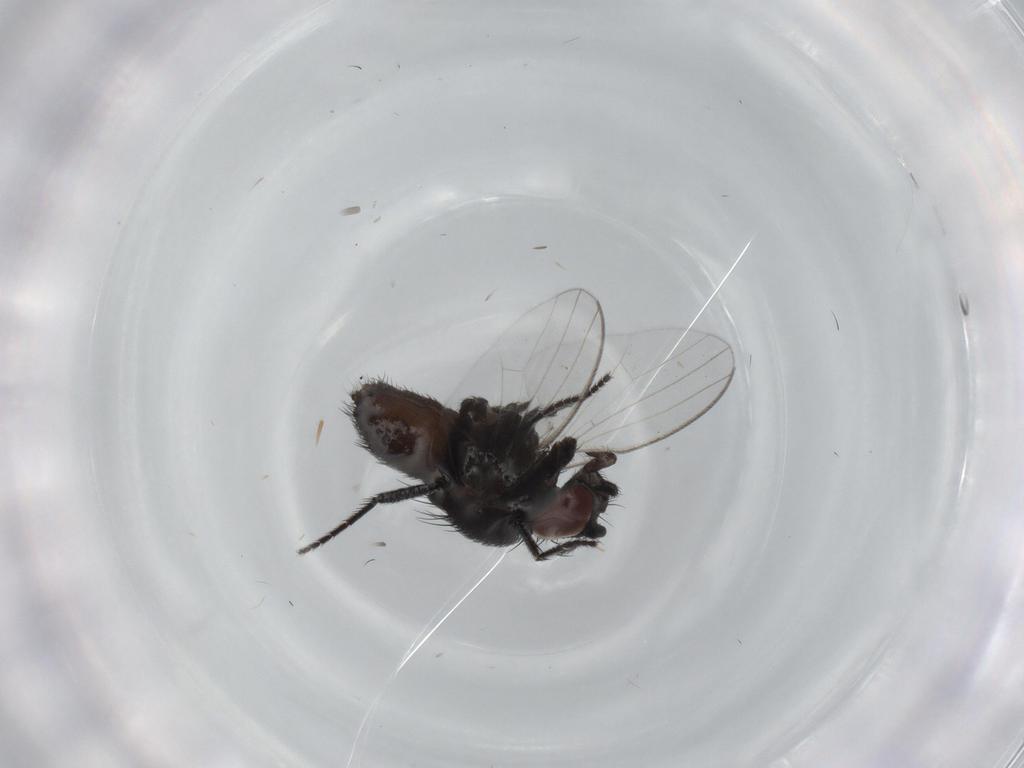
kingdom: Animalia
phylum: Arthropoda
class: Insecta
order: Diptera
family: Milichiidae
